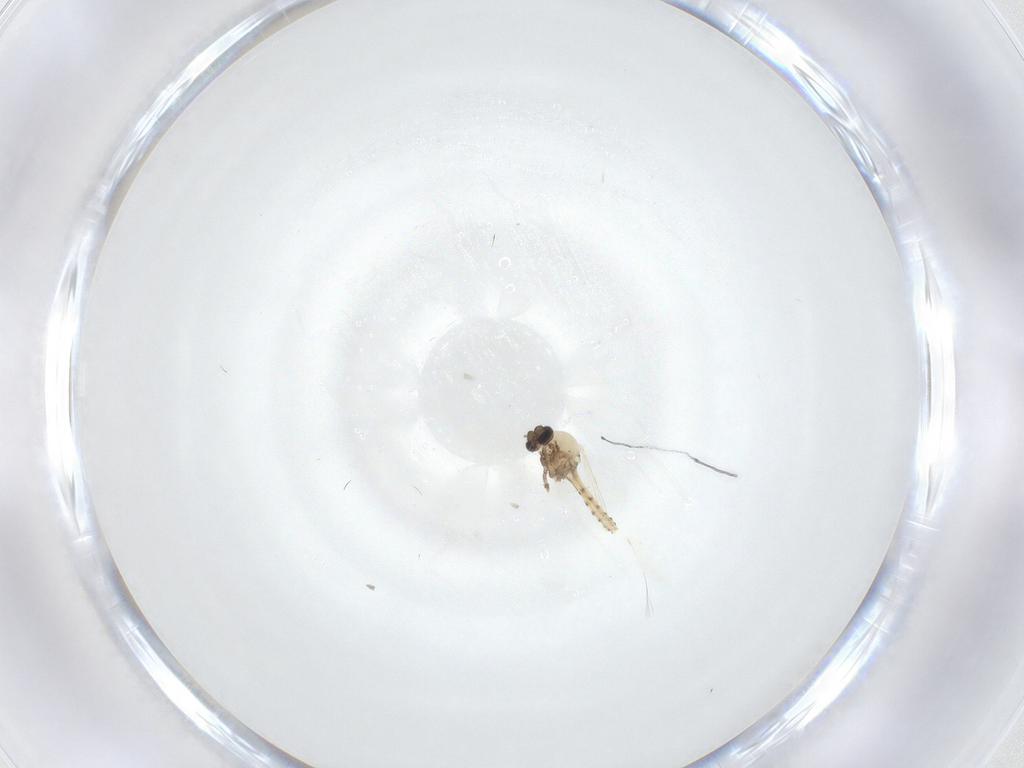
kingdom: Animalia
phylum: Arthropoda
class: Insecta
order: Diptera
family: Ceratopogonidae
